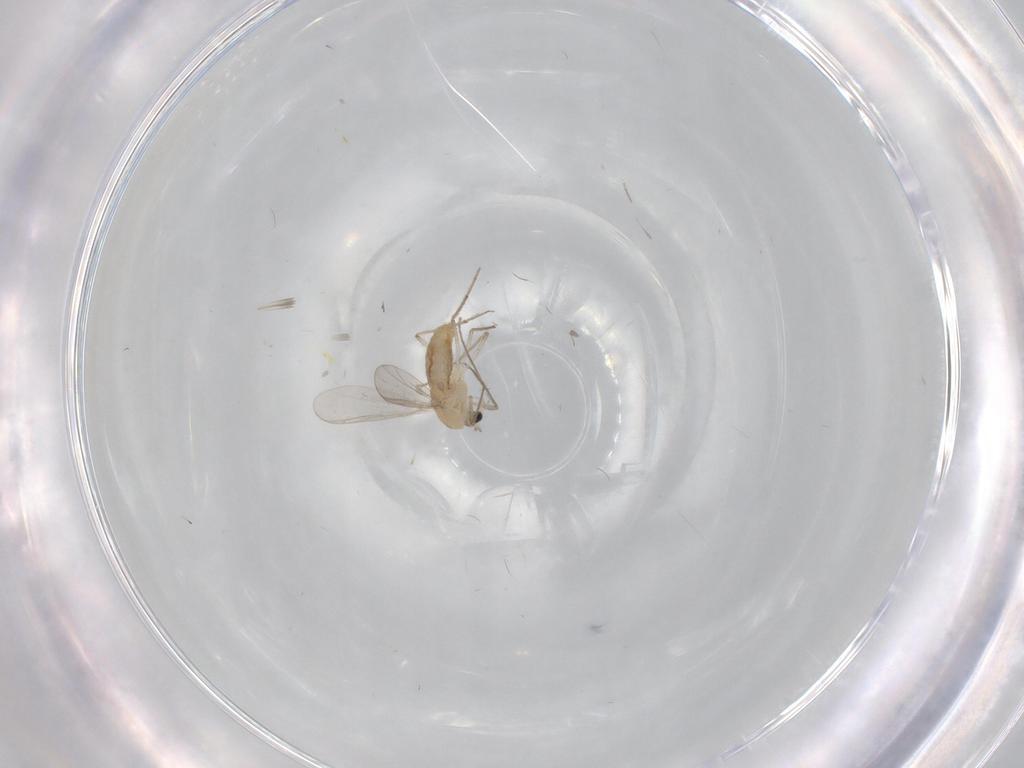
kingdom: Animalia
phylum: Arthropoda
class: Insecta
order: Diptera
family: Chironomidae
